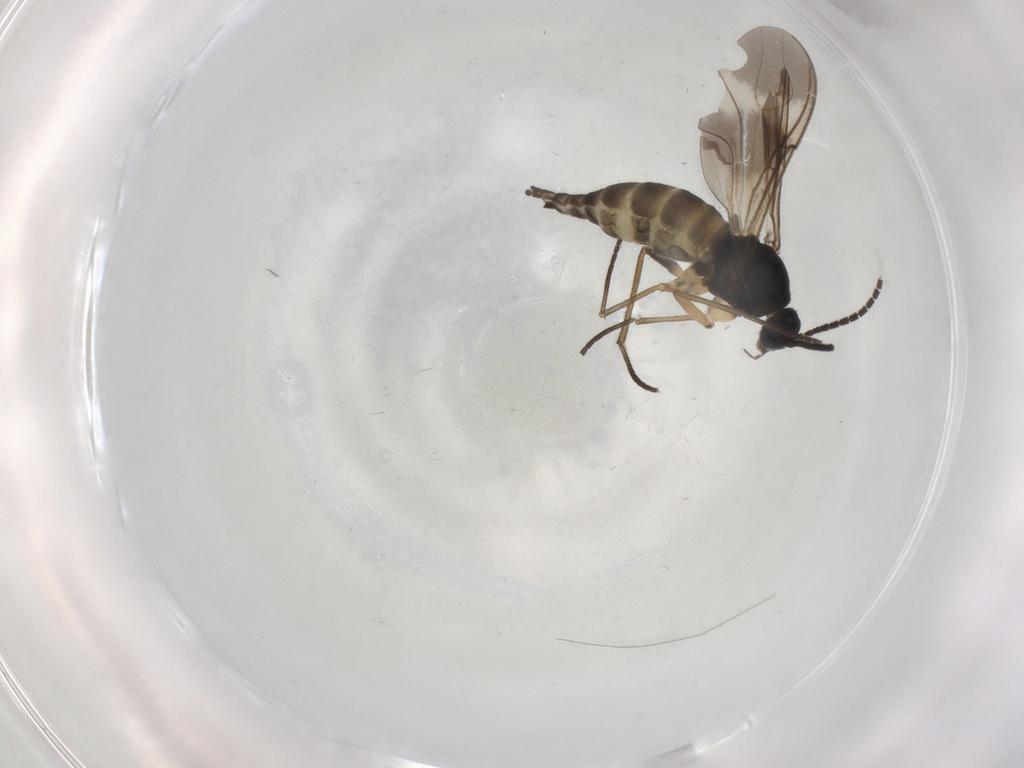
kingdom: Animalia
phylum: Arthropoda
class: Insecta
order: Diptera
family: Sciaridae
